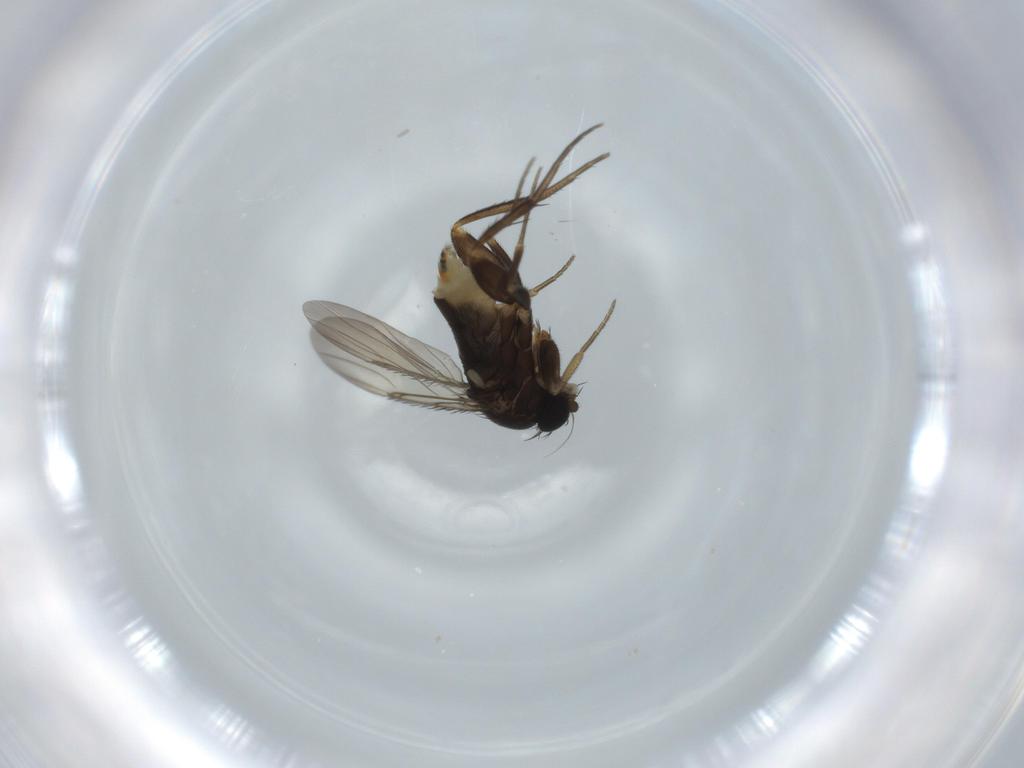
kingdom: Animalia
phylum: Arthropoda
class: Insecta
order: Diptera
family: Phoridae
